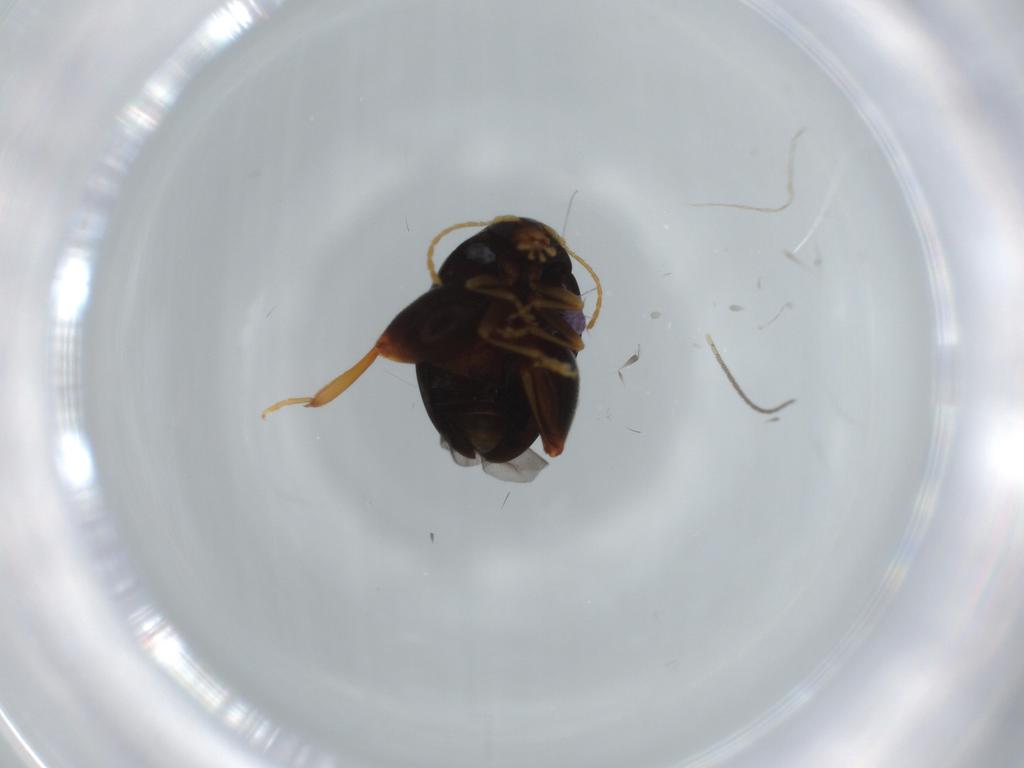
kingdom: Animalia
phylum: Arthropoda
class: Insecta
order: Coleoptera
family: Chrysomelidae
